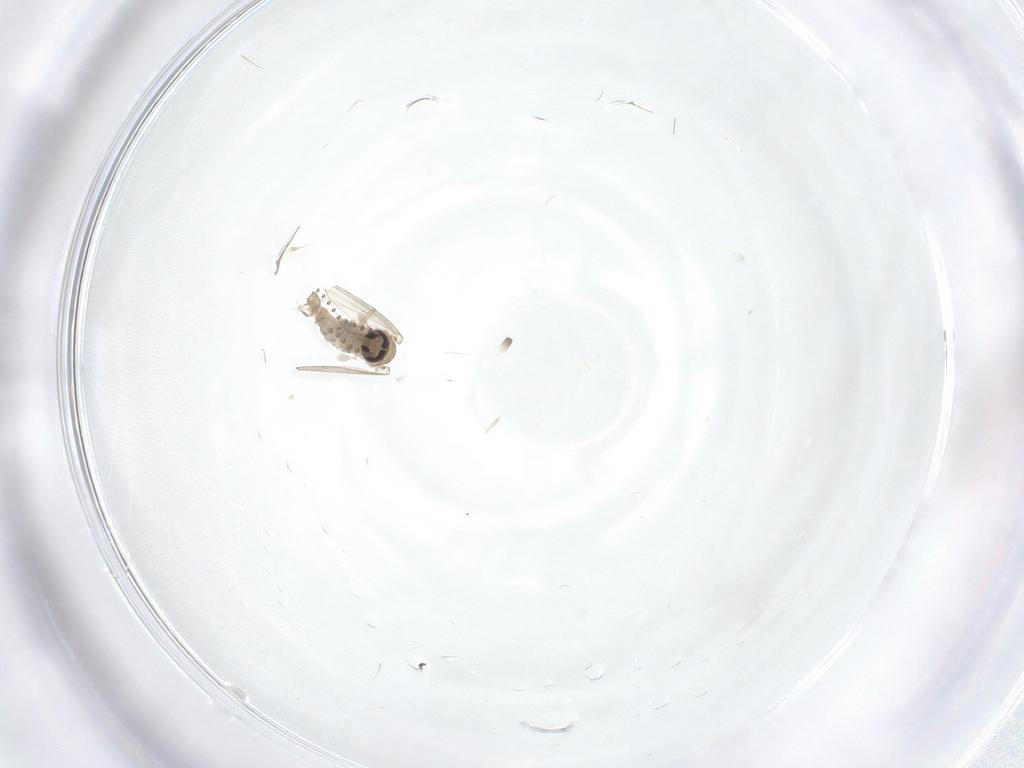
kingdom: Animalia
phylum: Arthropoda
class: Insecta
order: Diptera
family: Psychodidae
